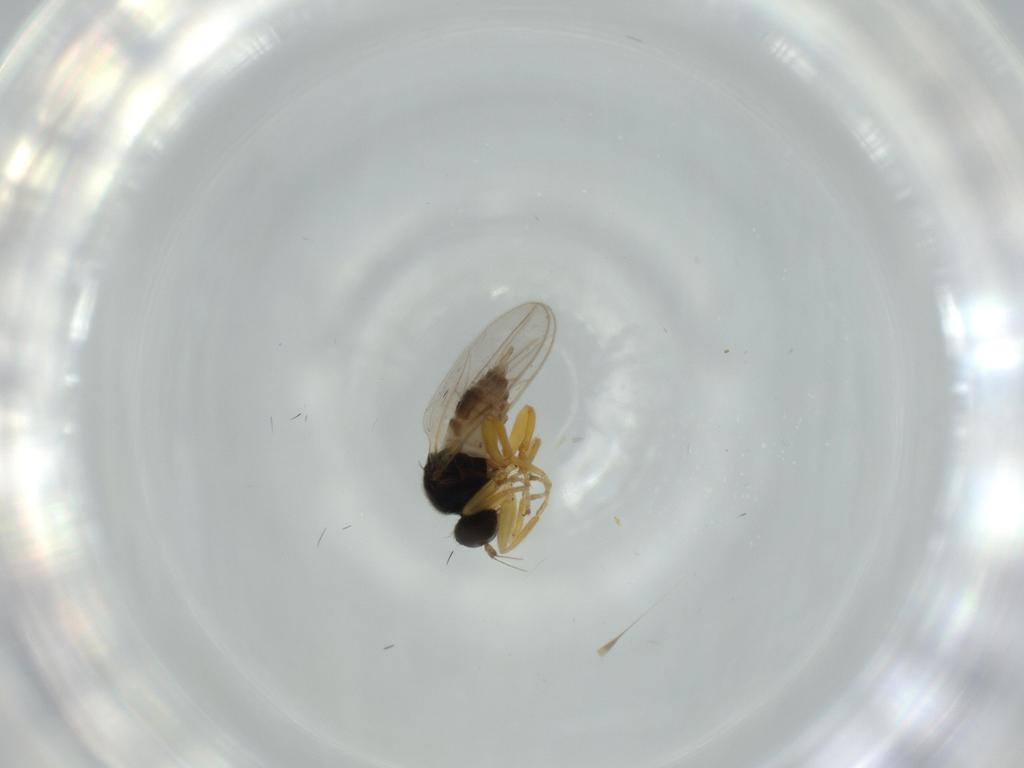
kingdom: Animalia
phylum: Arthropoda
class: Insecta
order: Diptera
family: Hybotidae
